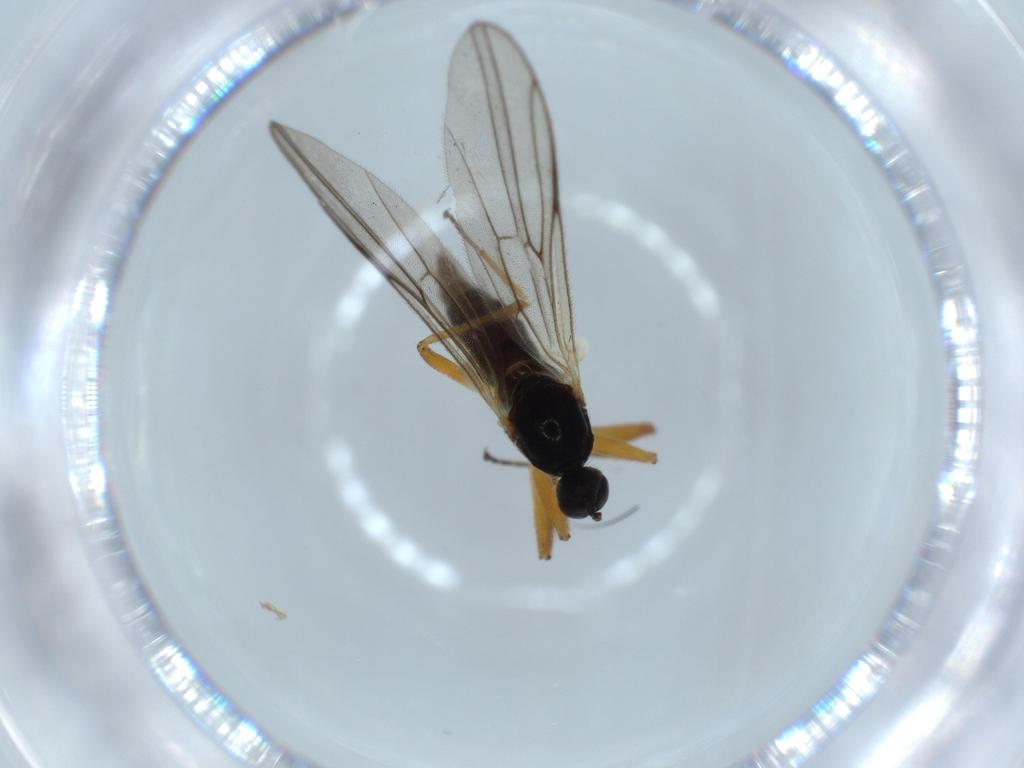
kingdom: Animalia
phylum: Arthropoda
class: Insecta
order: Diptera
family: Hybotidae
